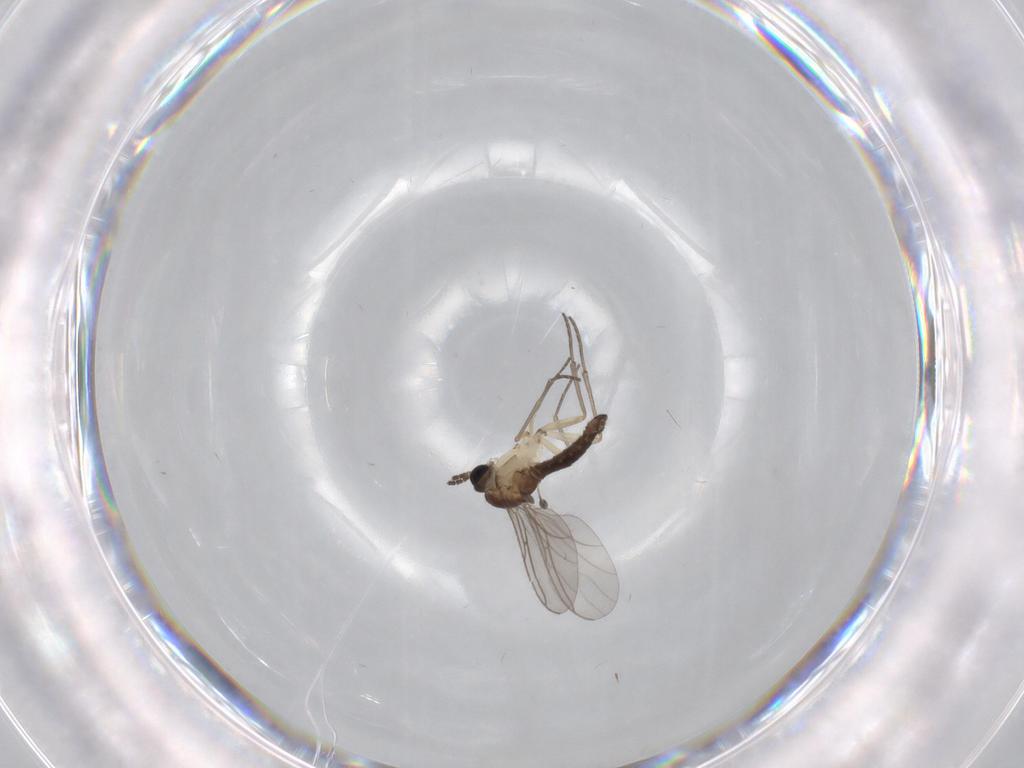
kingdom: Animalia
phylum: Arthropoda
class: Insecta
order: Diptera
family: Sciaridae
